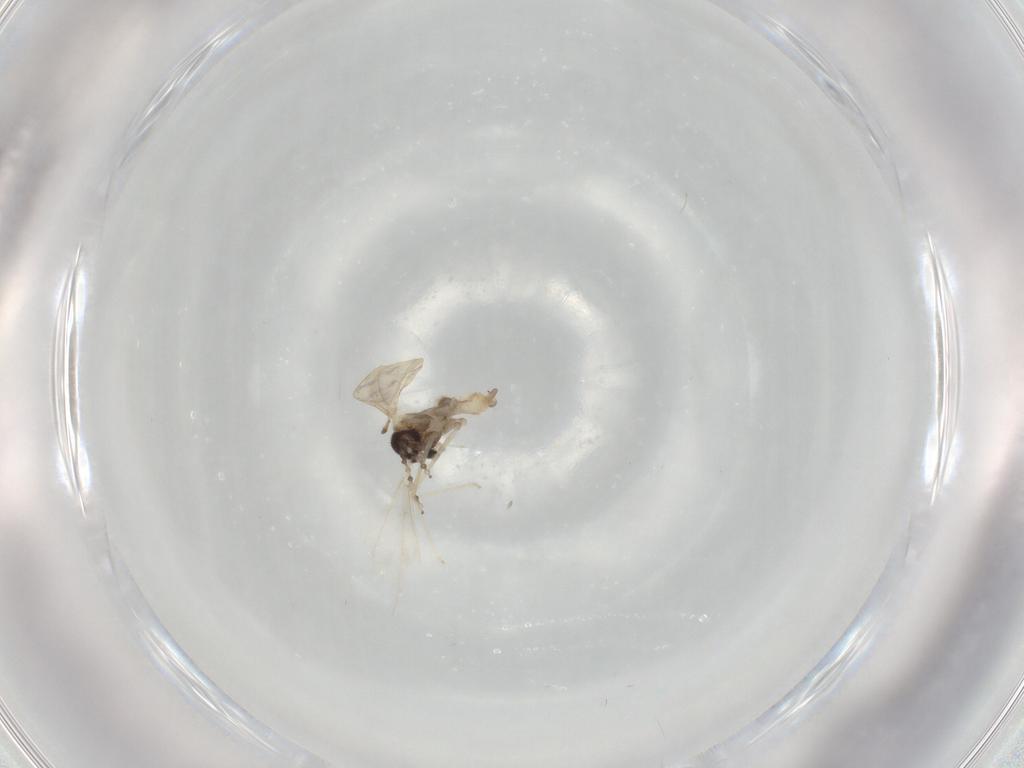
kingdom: Animalia
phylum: Arthropoda
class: Insecta
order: Diptera
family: Cecidomyiidae
